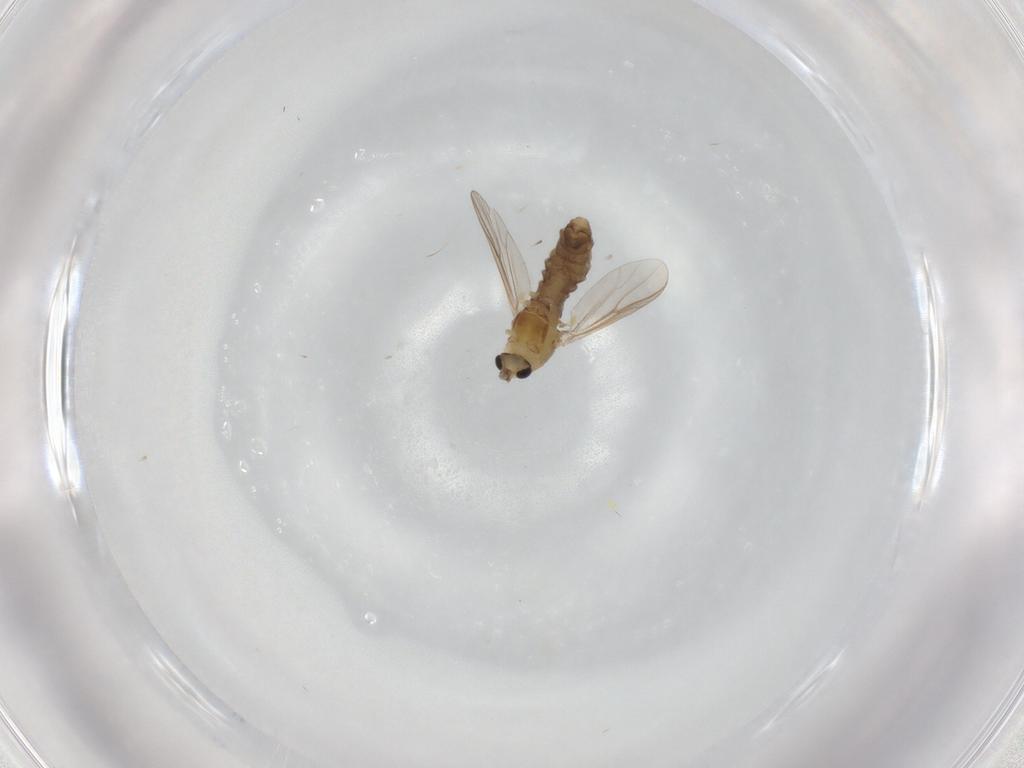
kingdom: Animalia
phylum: Arthropoda
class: Insecta
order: Diptera
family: Chironomidae
